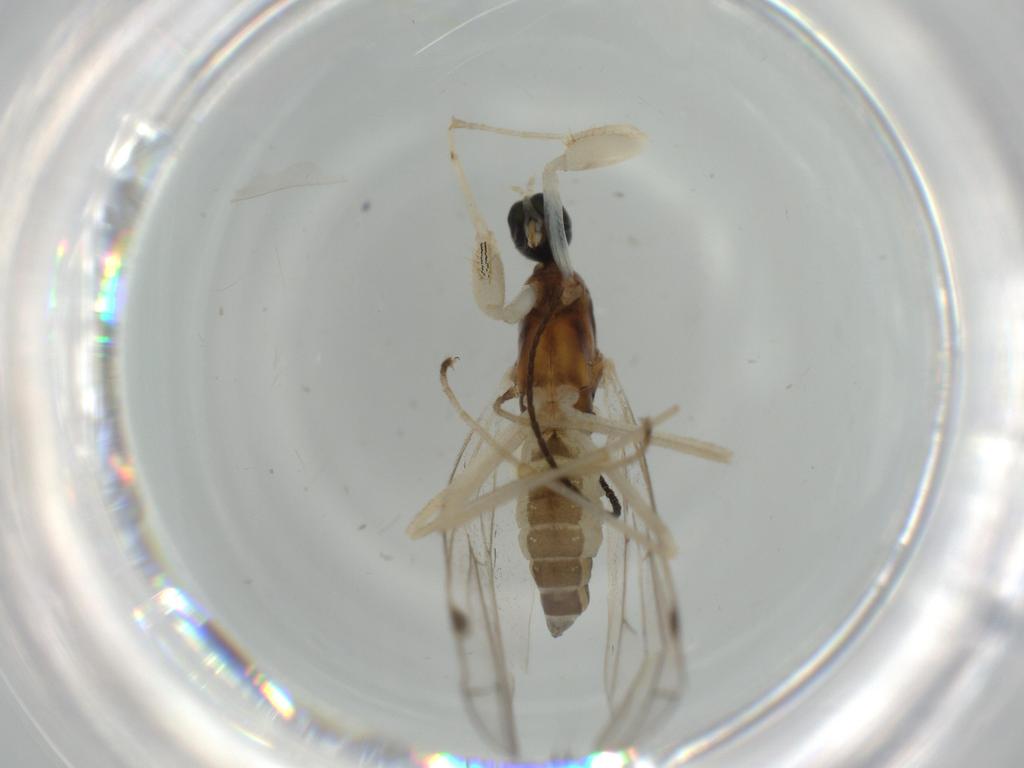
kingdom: Animalia
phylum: Arthropoda
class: Insecta
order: Diptera
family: Empididae
